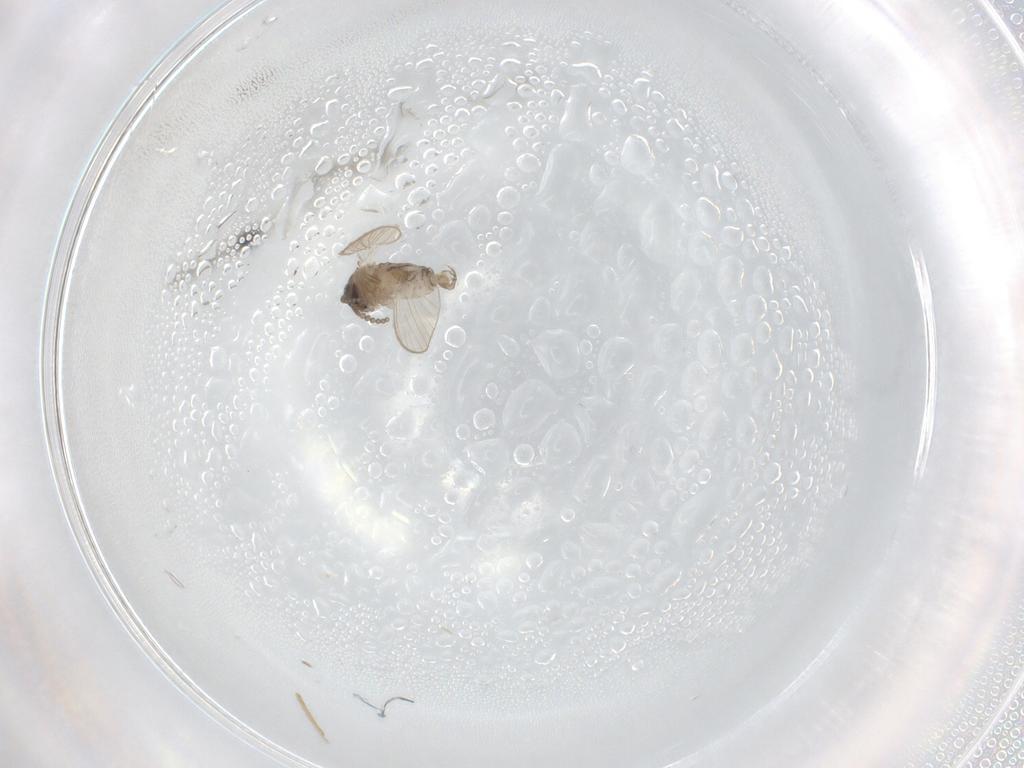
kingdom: Animalia
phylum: Arthropoda
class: Insecta
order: Diptera
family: Psychodidae
